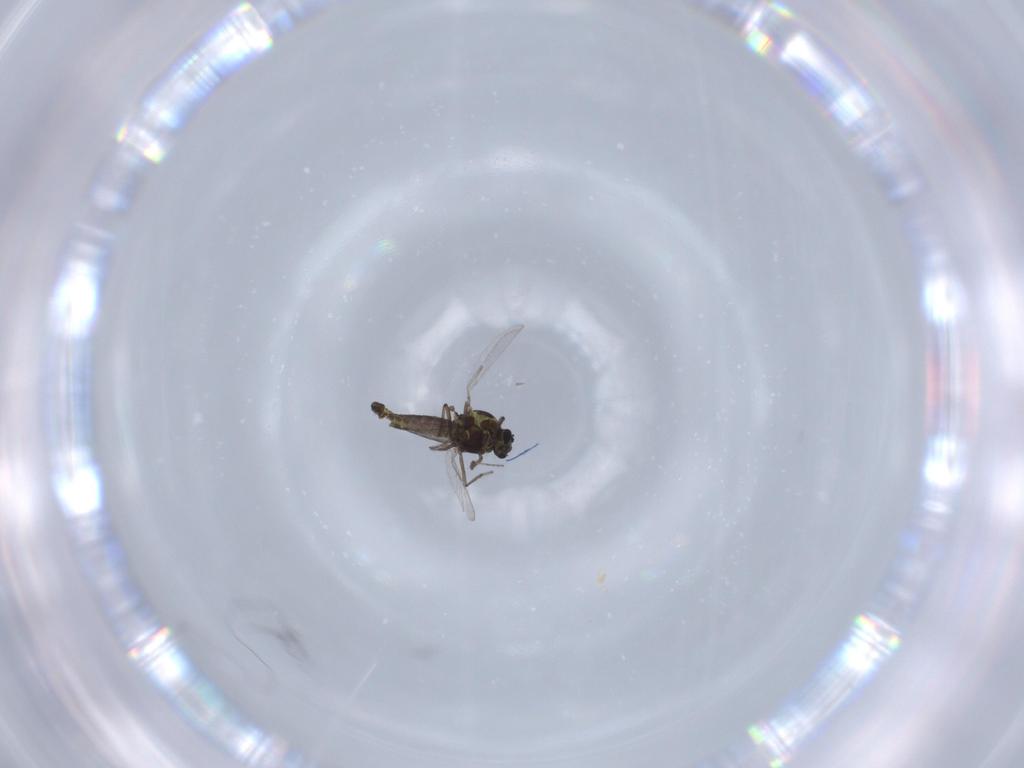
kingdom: Animalia
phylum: Arthropoda
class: Insecta
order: Diptera
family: Ceratopogonidae
